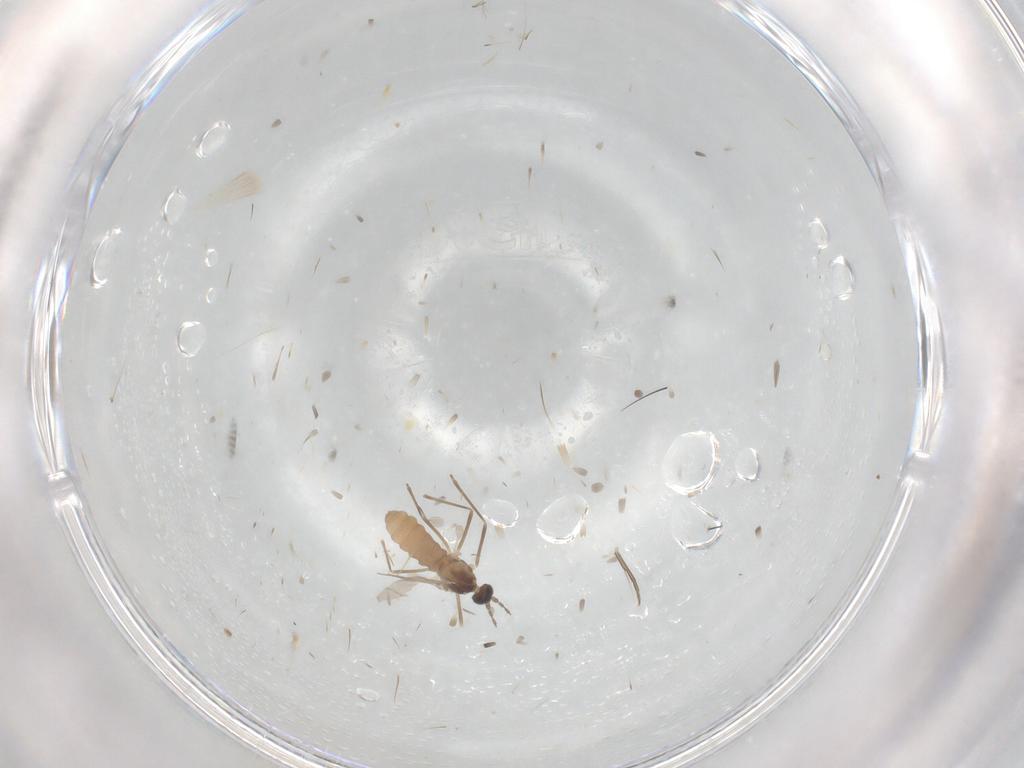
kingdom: Animalia
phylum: Arthropoda
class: Insecta
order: Diptera
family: Cecidomyiidae
